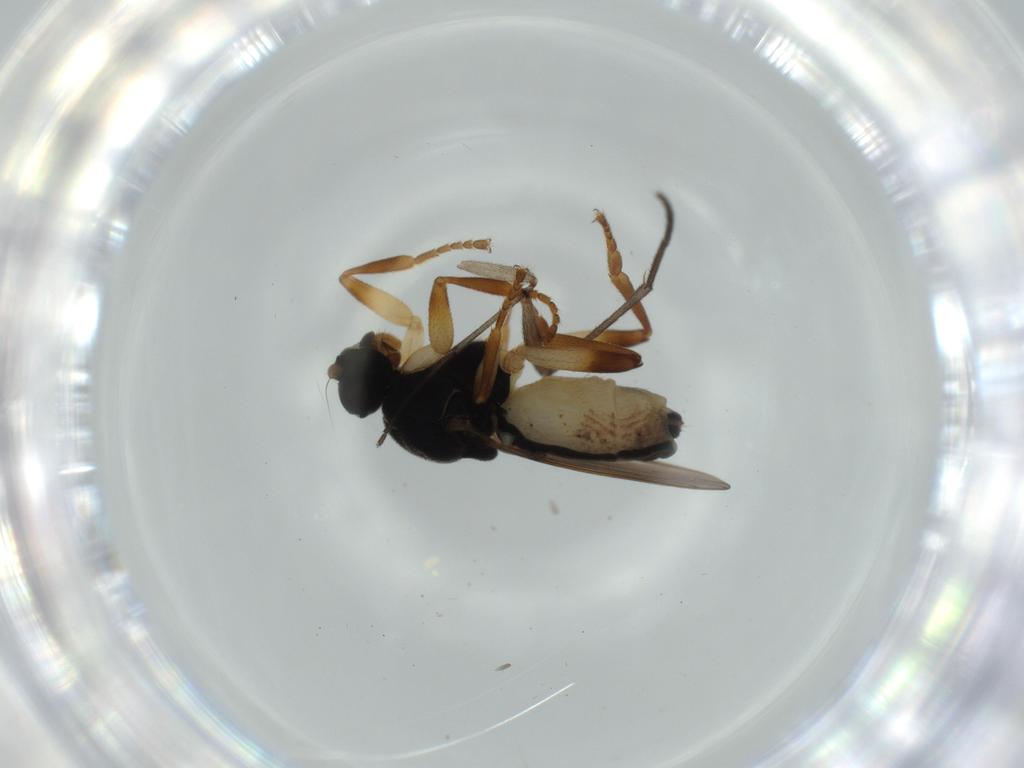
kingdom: Animalia
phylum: Arthropoda
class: Insecta
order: Diptera
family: Sphaeroceridae
